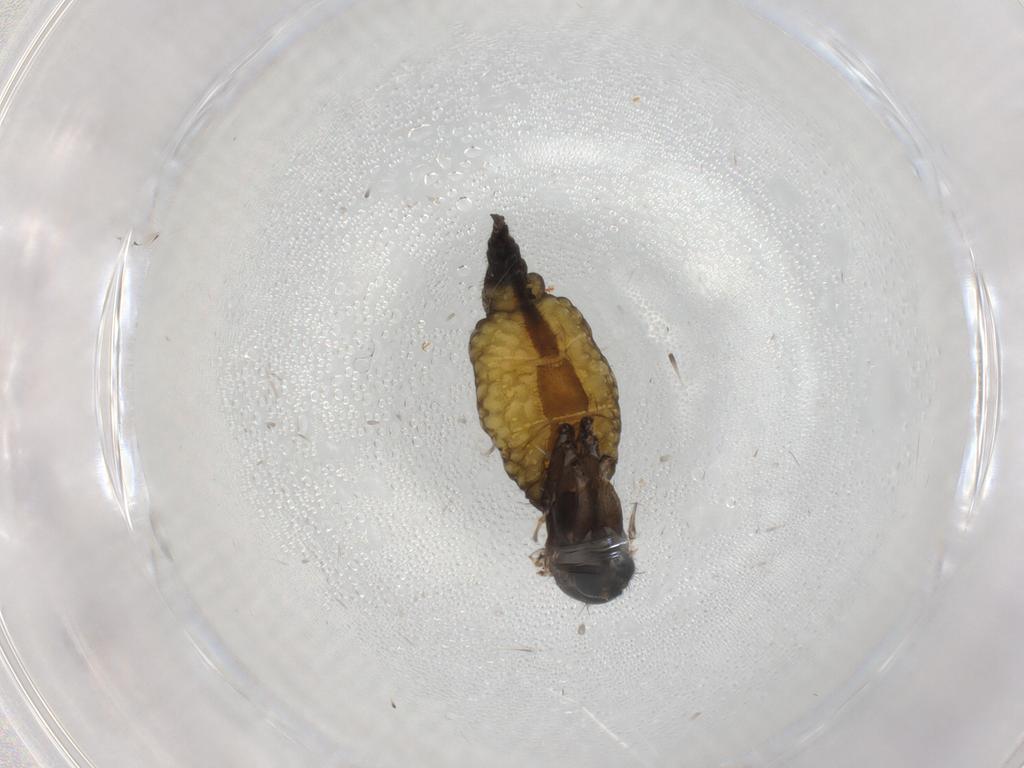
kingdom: Animalia
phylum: Arthropoda
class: Insecta
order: Diptera
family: Sciaridae
